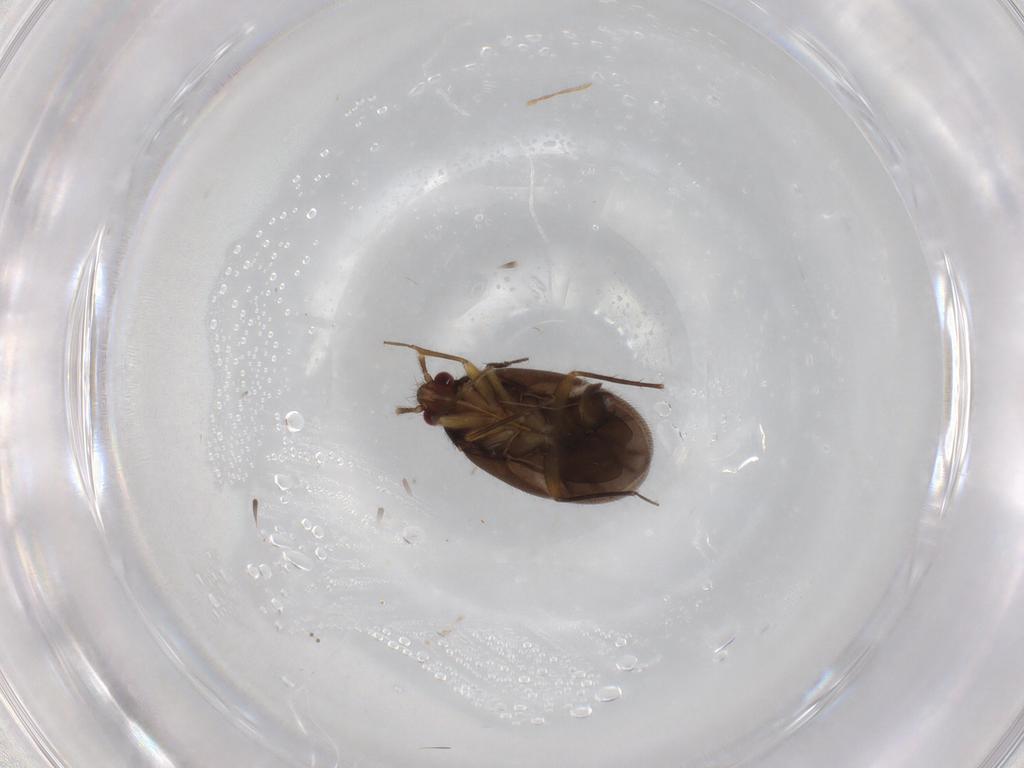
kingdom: Animalia
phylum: Arthropoda
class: Insecta
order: Hemiptera
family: Ceratocombidae
